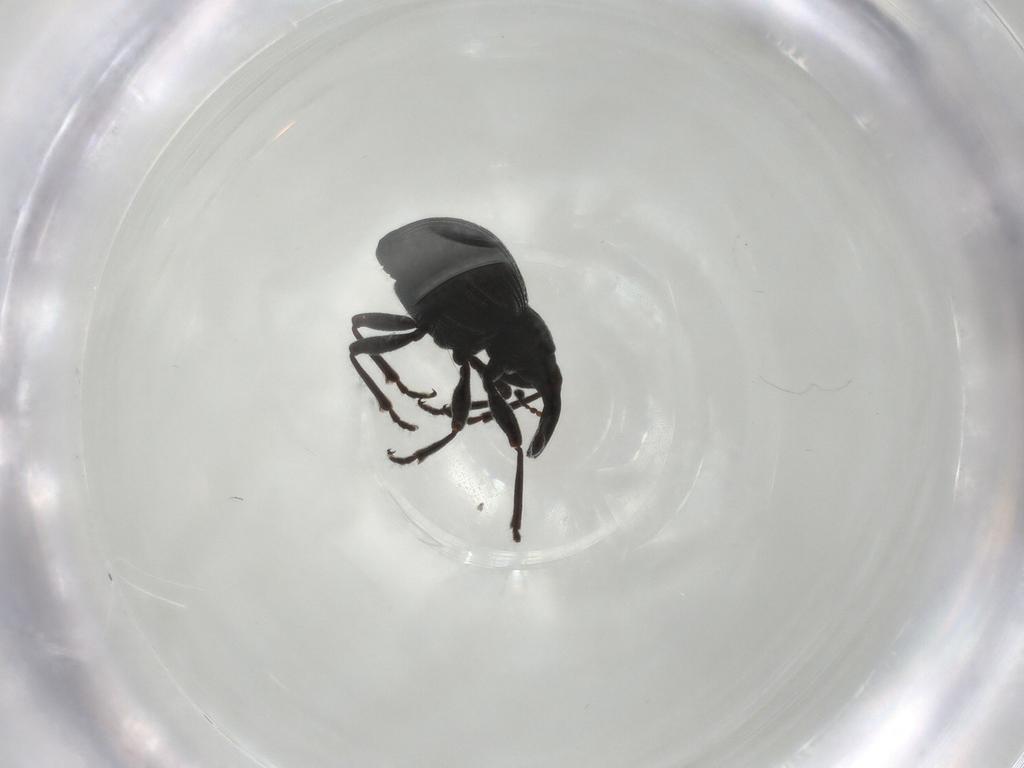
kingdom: Animalia
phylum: Arthropoda
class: Insecta
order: Coleoptera
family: Brentidae
